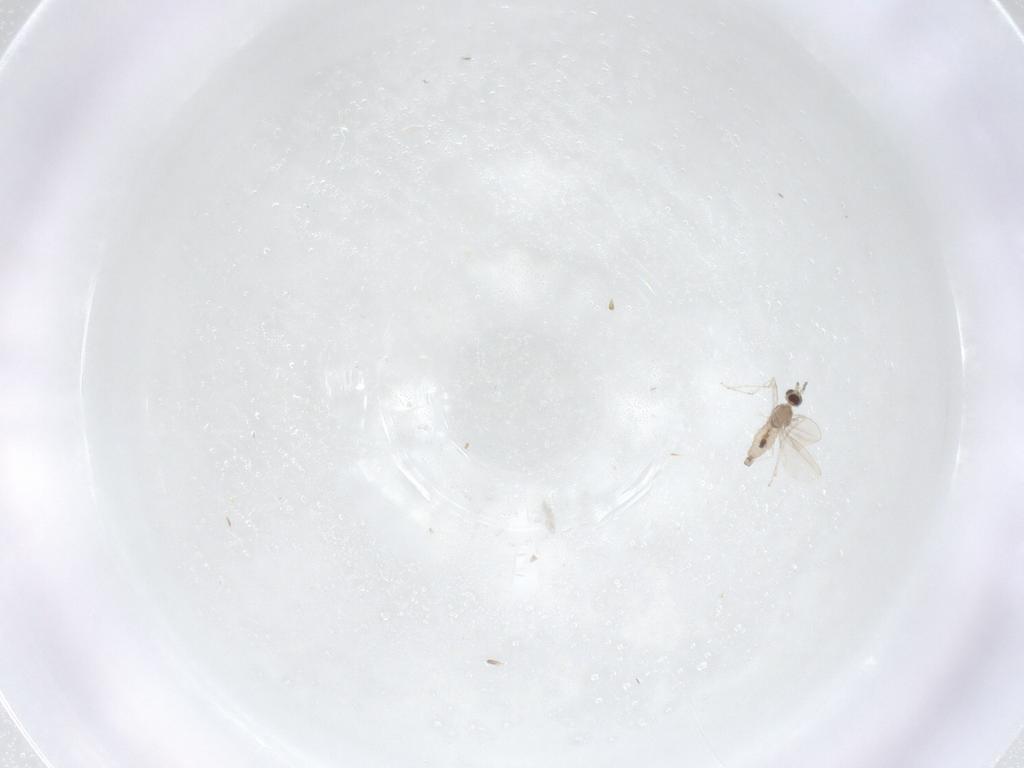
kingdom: Animalia
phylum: Arthropoda
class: Insecta
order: Diptera
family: Cecidomyiidae
